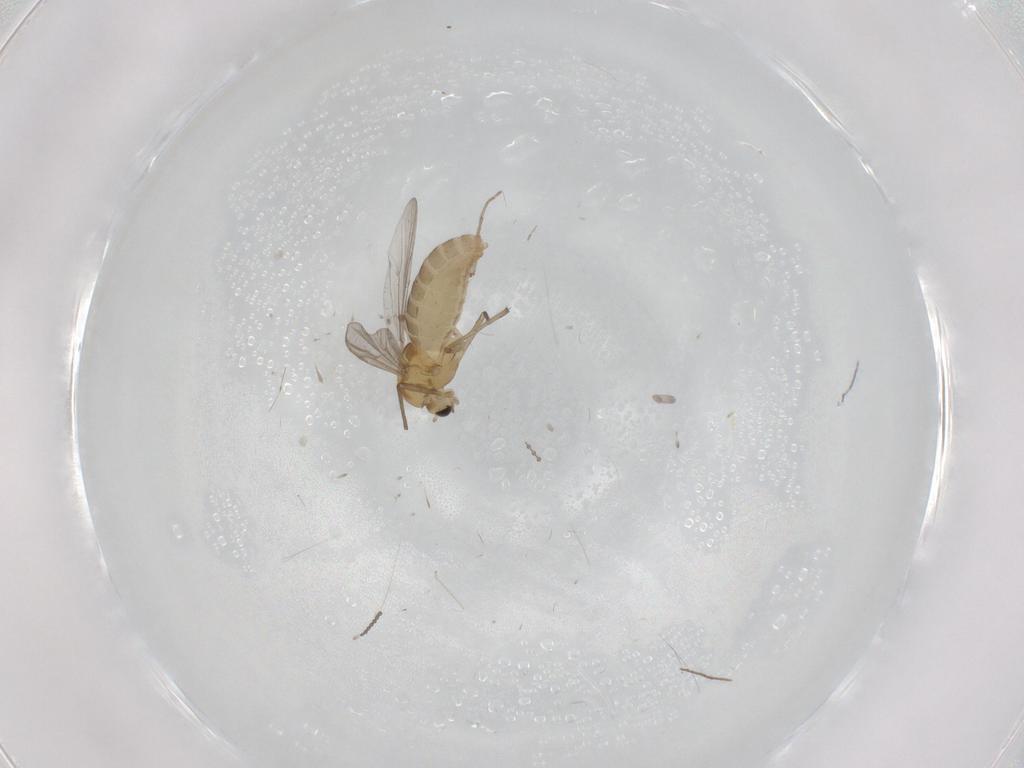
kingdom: Animalia
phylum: Arthropoda
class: Insecta
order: Diptera
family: Chironomidae
